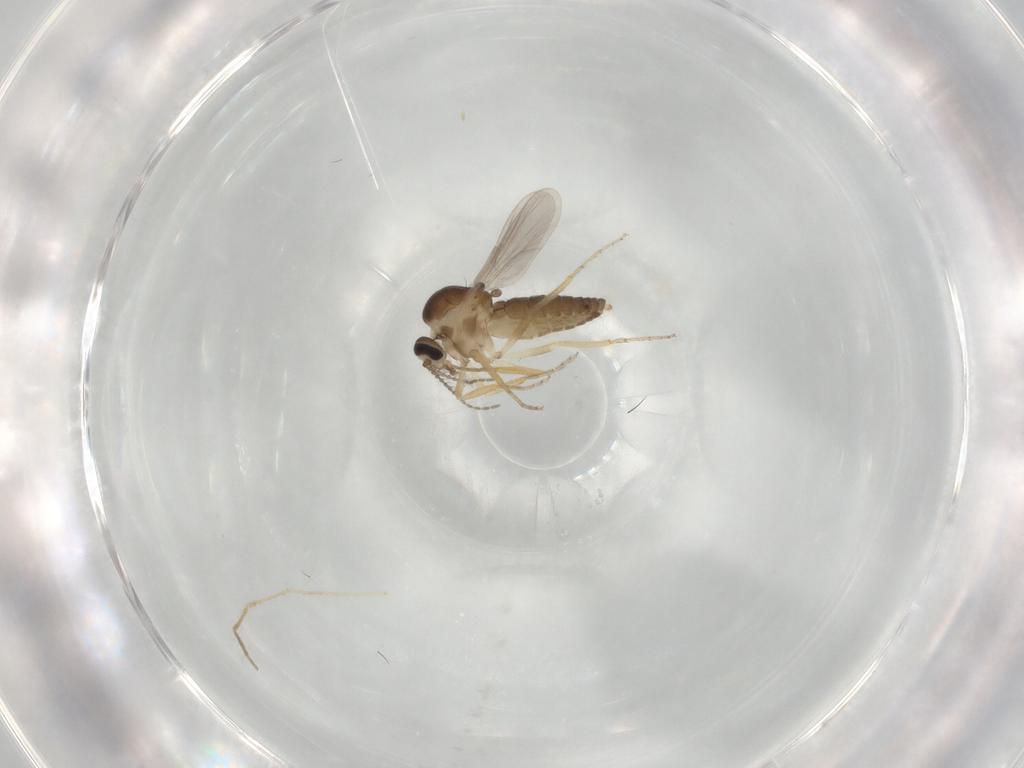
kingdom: Animalia
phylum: Arthropoda
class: Insecta
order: Diptera
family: Ceratopogonidae
